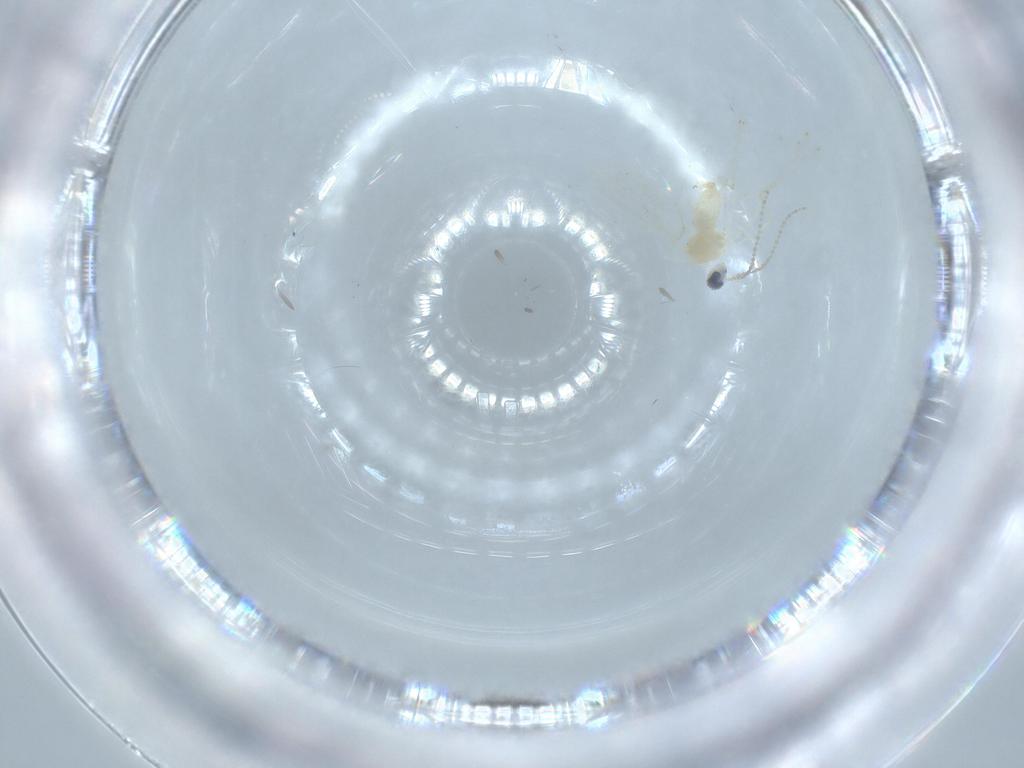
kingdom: Animalia
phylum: Arthropoda
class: Insecta
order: Diptera
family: Cecidomyiidae
